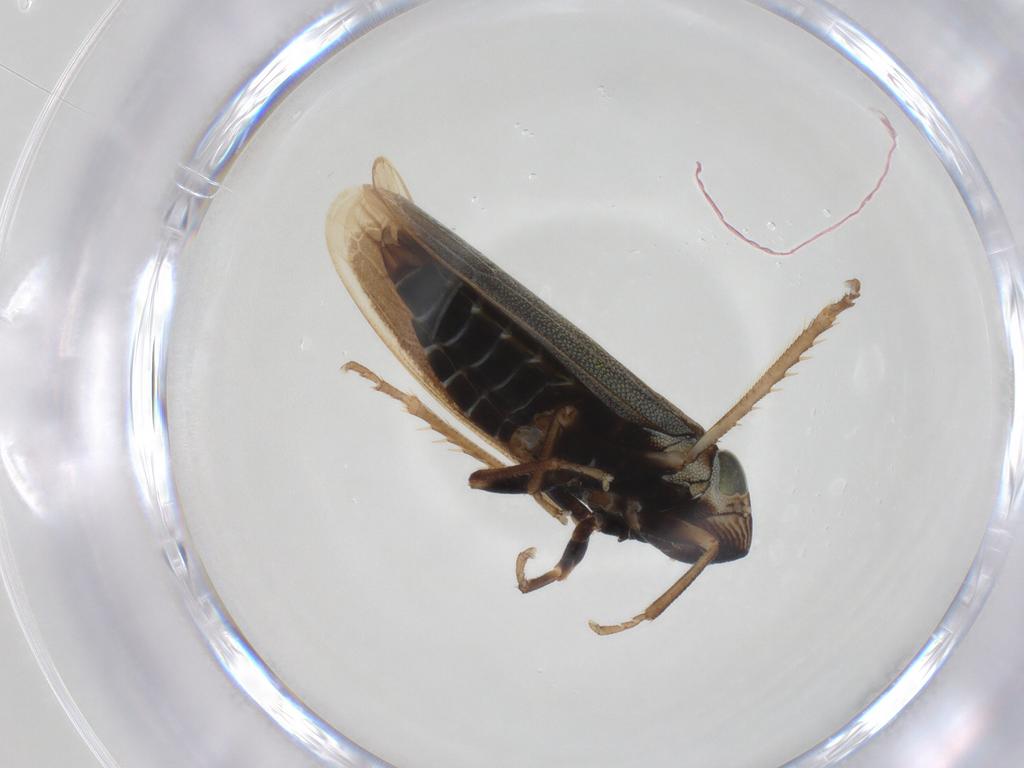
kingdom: Animalia
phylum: Arthropoda
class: Insecta
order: Hemiptera
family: Cicadellidae
